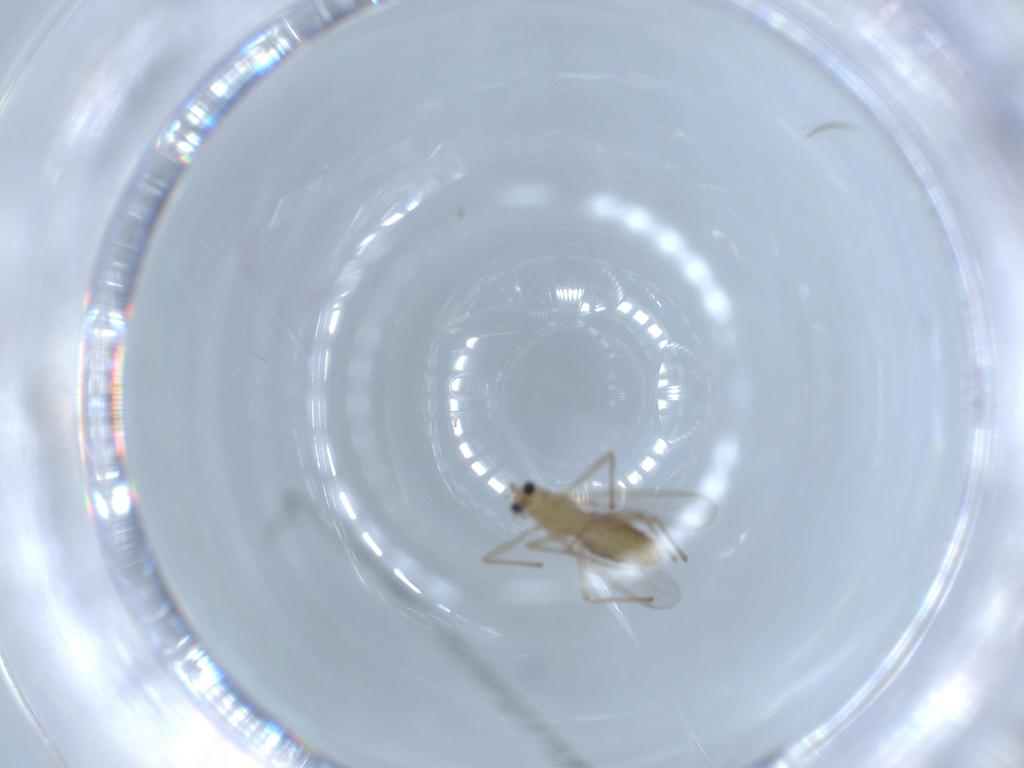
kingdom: Animalia
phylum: Arthropoda
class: Insecta
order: Diptera
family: Chironomidae
